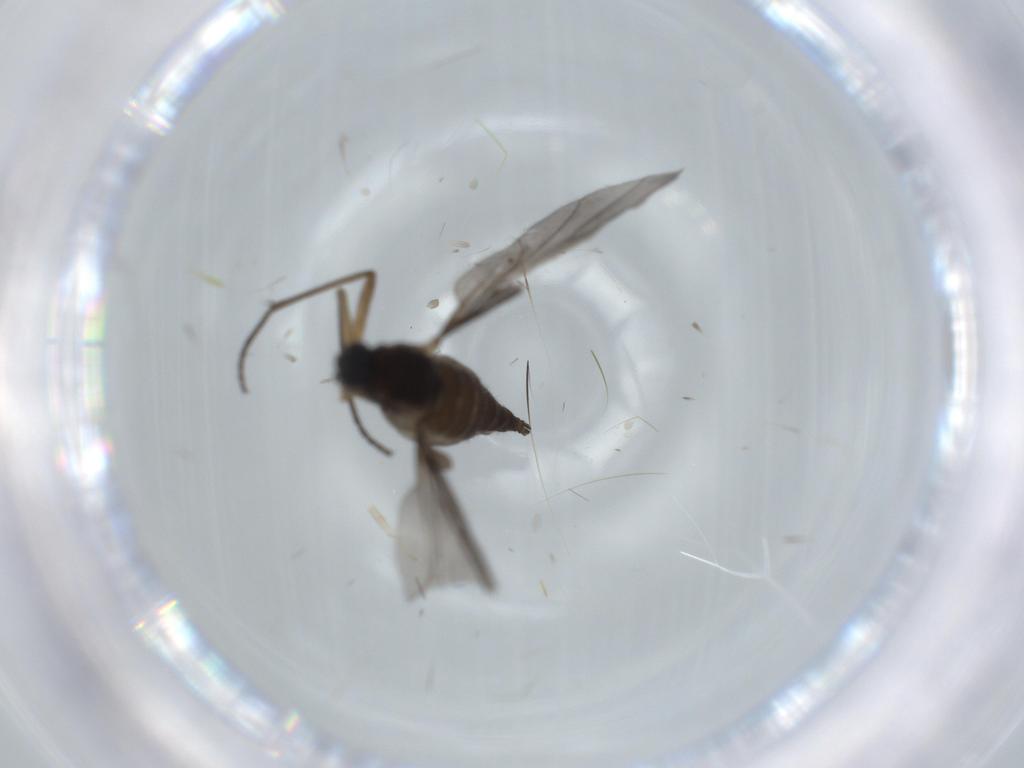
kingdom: Animalia
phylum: Arthropoda
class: Insecta
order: Diptera
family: Sciaridae
